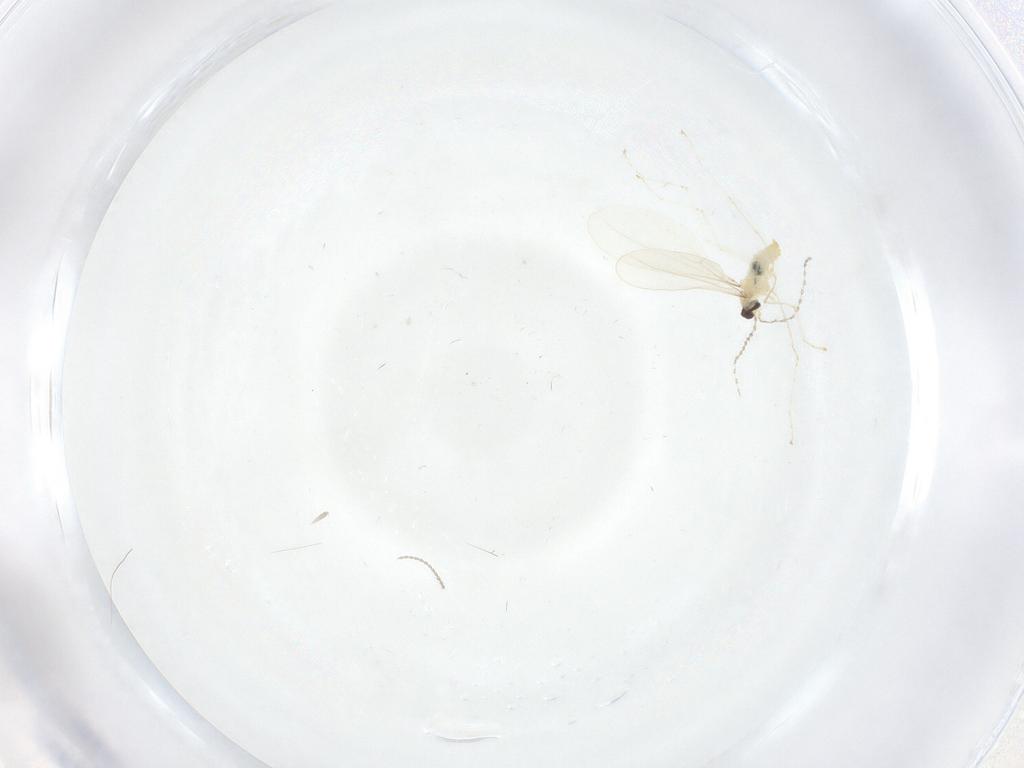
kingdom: Animalia
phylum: Arthropoda
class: Insecta
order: Diptera
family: Cecidomyiidae
